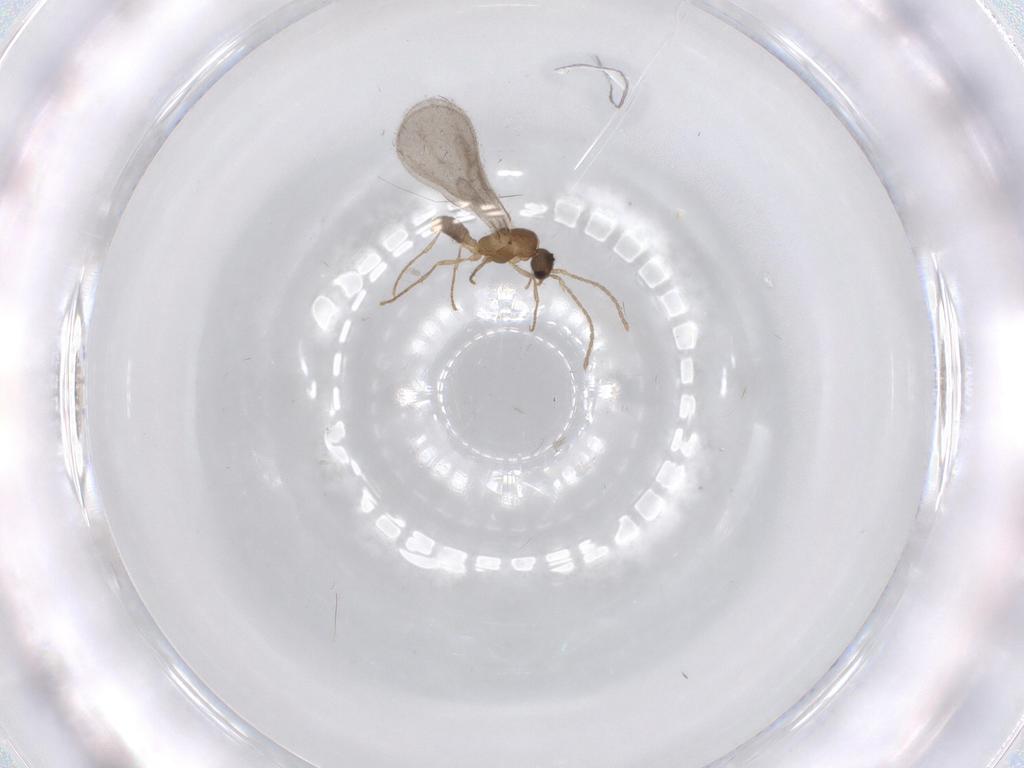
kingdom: Animalia
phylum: Arthropoda
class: Insecta
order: Hymenoptera
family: Formicidae
